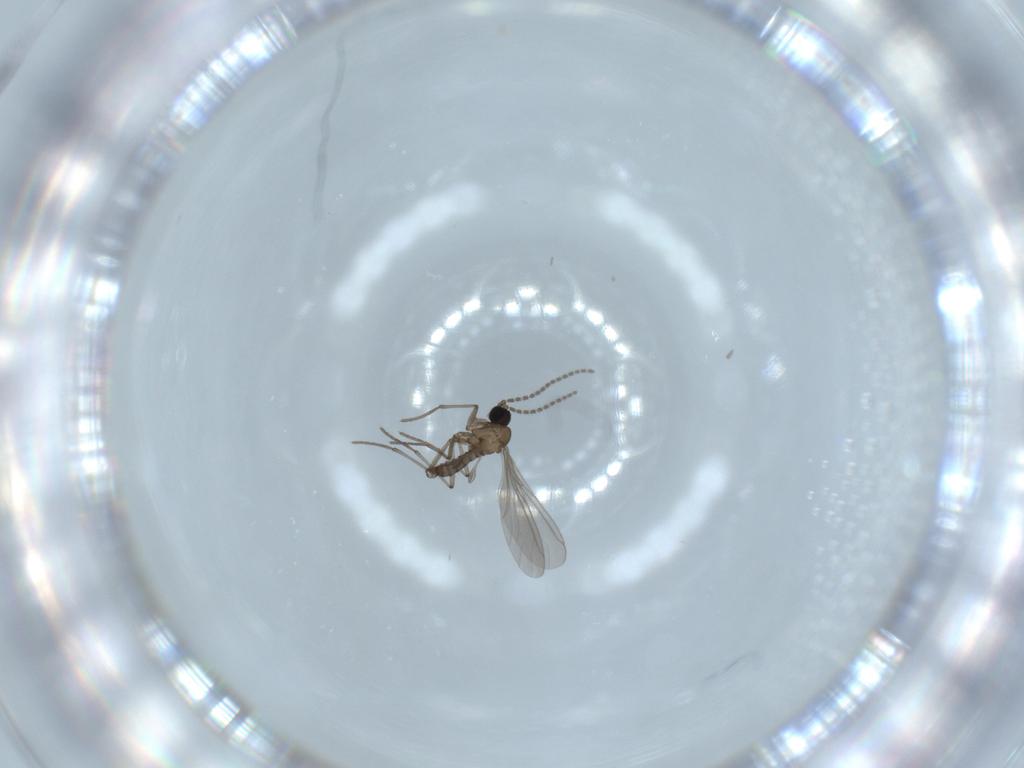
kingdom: Animalia
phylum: Arthropoda
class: Insecta
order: Diptera
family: Sciaridae
